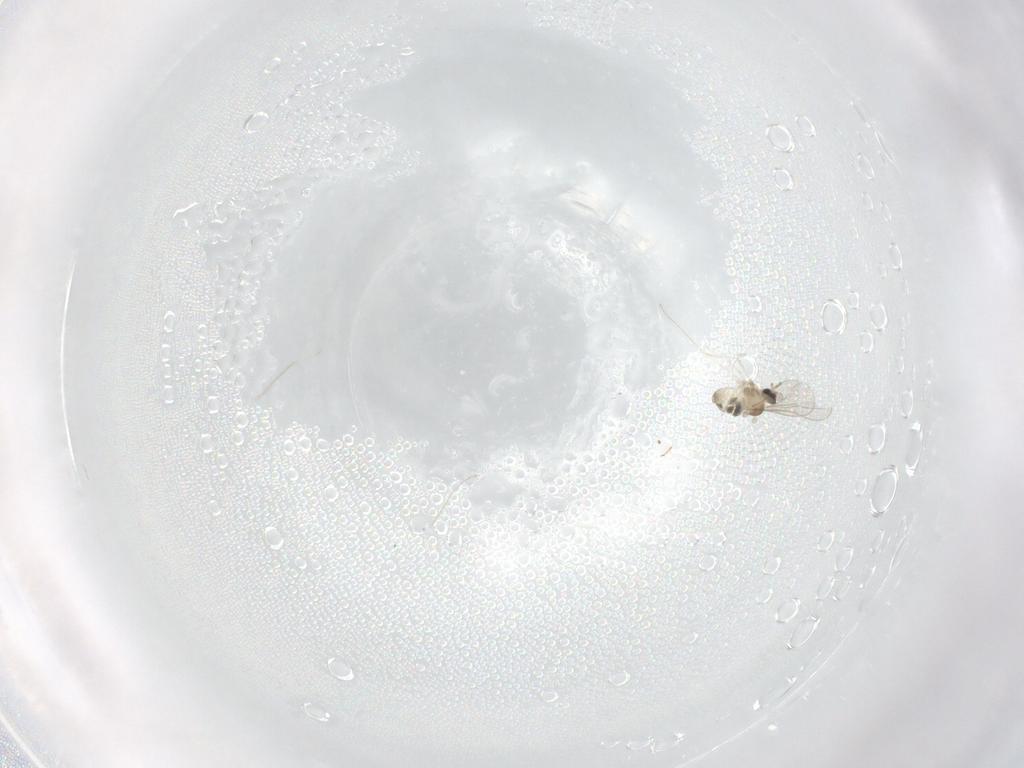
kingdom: Animalia
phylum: Arthropoda
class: Insecta
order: Diptera
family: Cecidomyiidae
